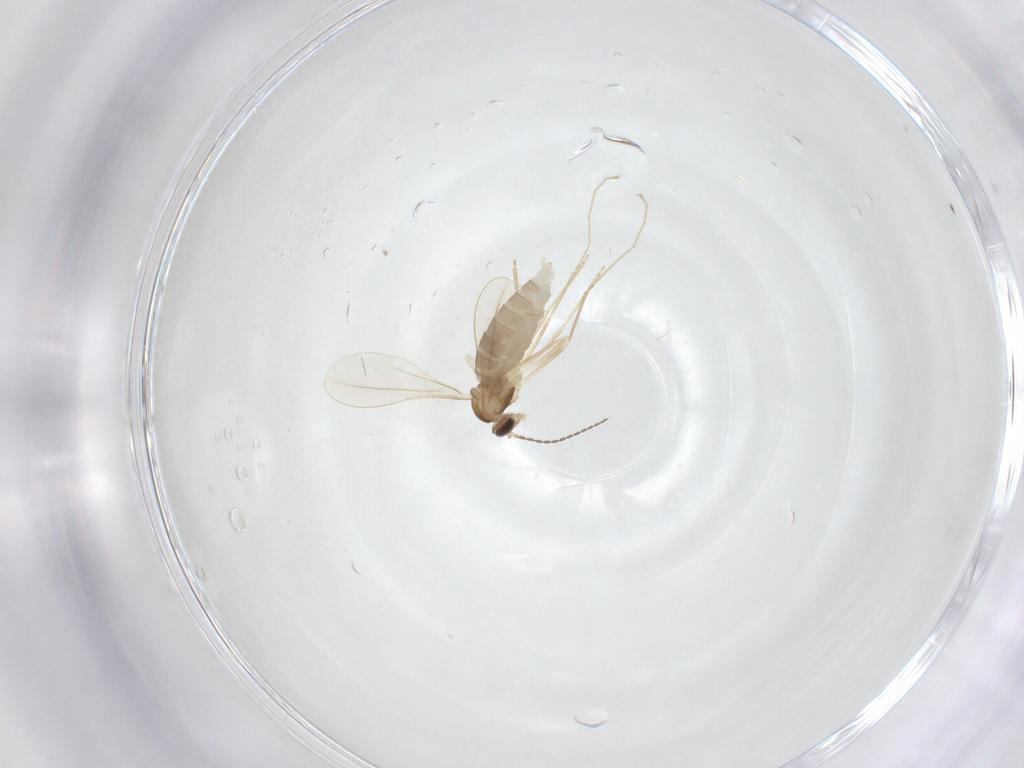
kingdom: Animalia
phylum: Arthropoda
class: Insecta
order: Diptera
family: Cecidomyiidae
